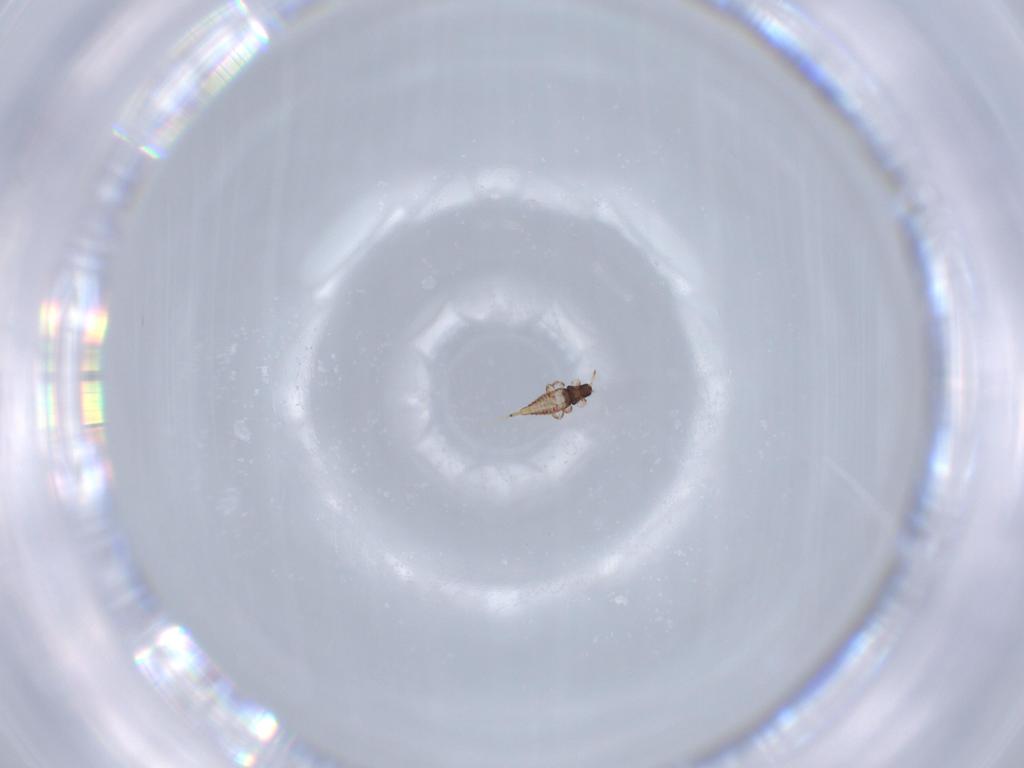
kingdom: Animalia
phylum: Arthropoda
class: Insecta
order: Thysanoptera
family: Phlaeothripidae
